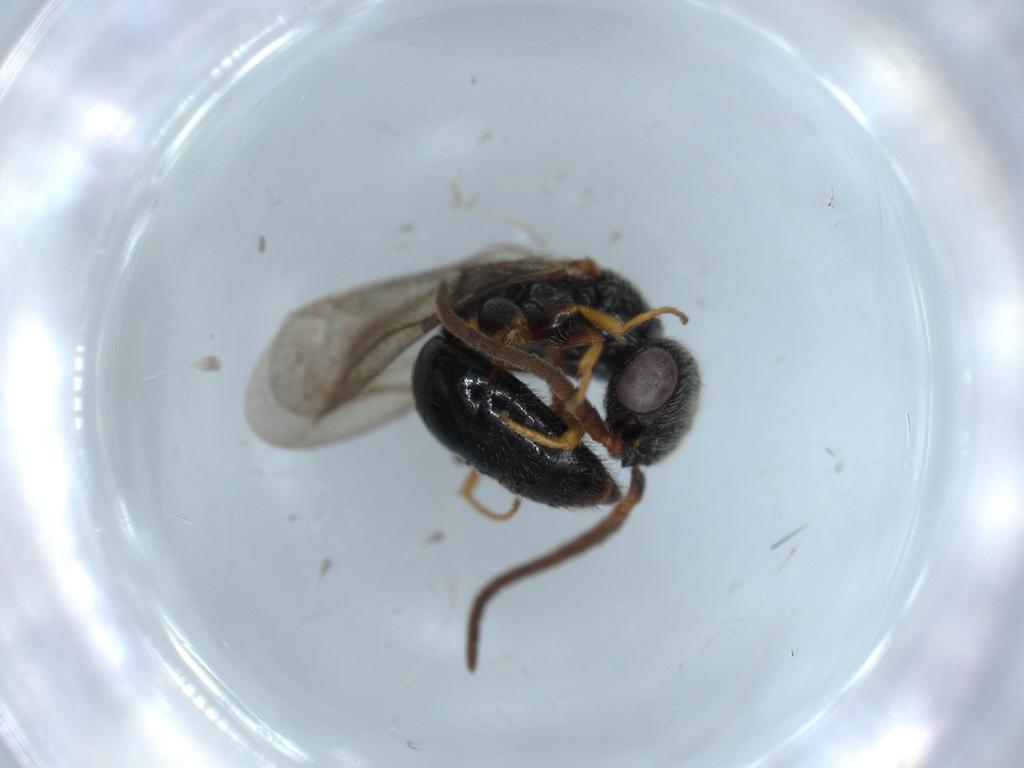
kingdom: Animalia
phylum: Arthropoda
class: Insecta
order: Hymenoptera
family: Bethylidae
